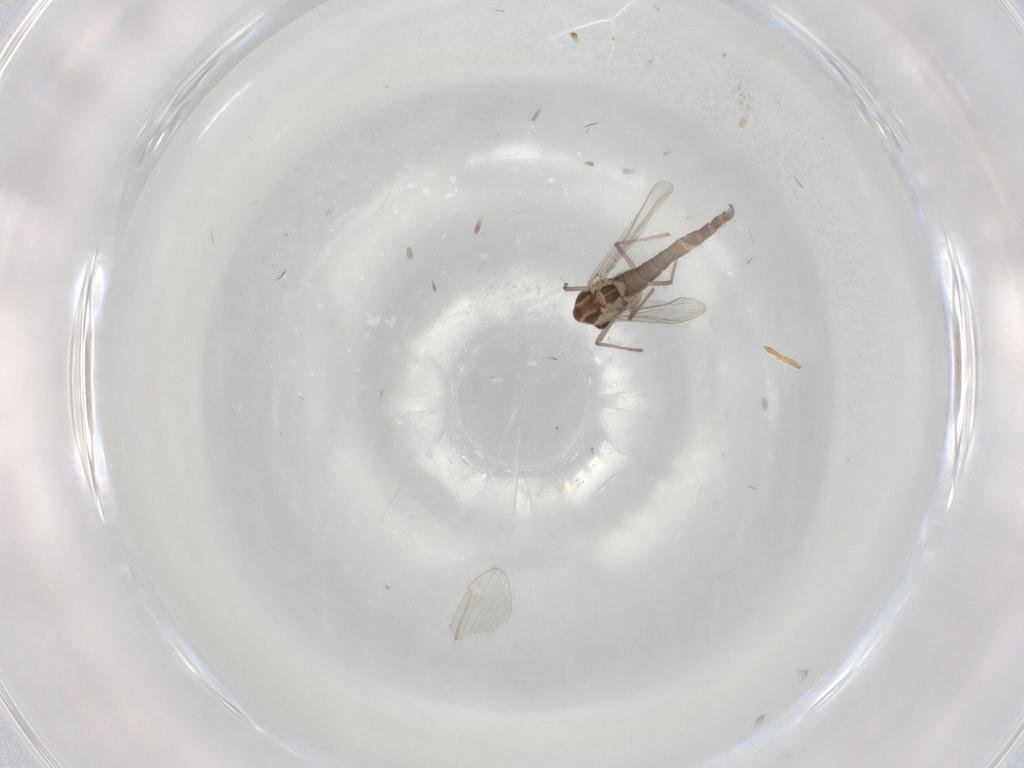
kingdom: Animalia
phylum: Arthropoda
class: Insecta
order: Diptera
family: Chironomidae
